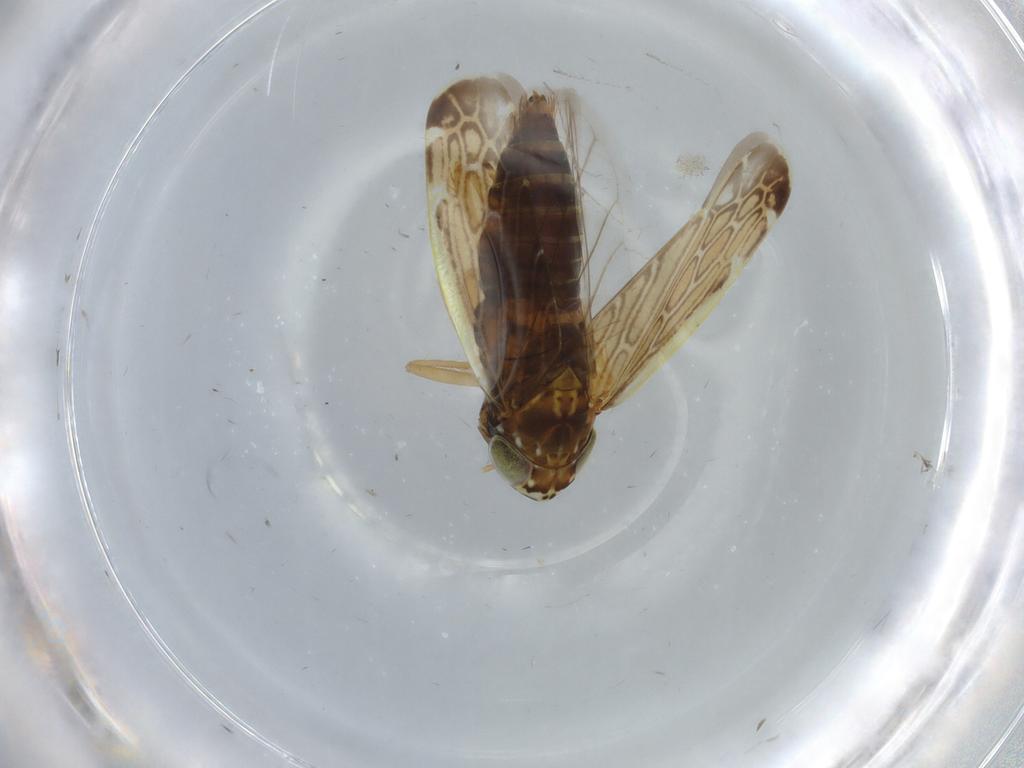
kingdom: Animalia
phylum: Arthropoda
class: Insecta
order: Hemiptera
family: Cicadellidae
